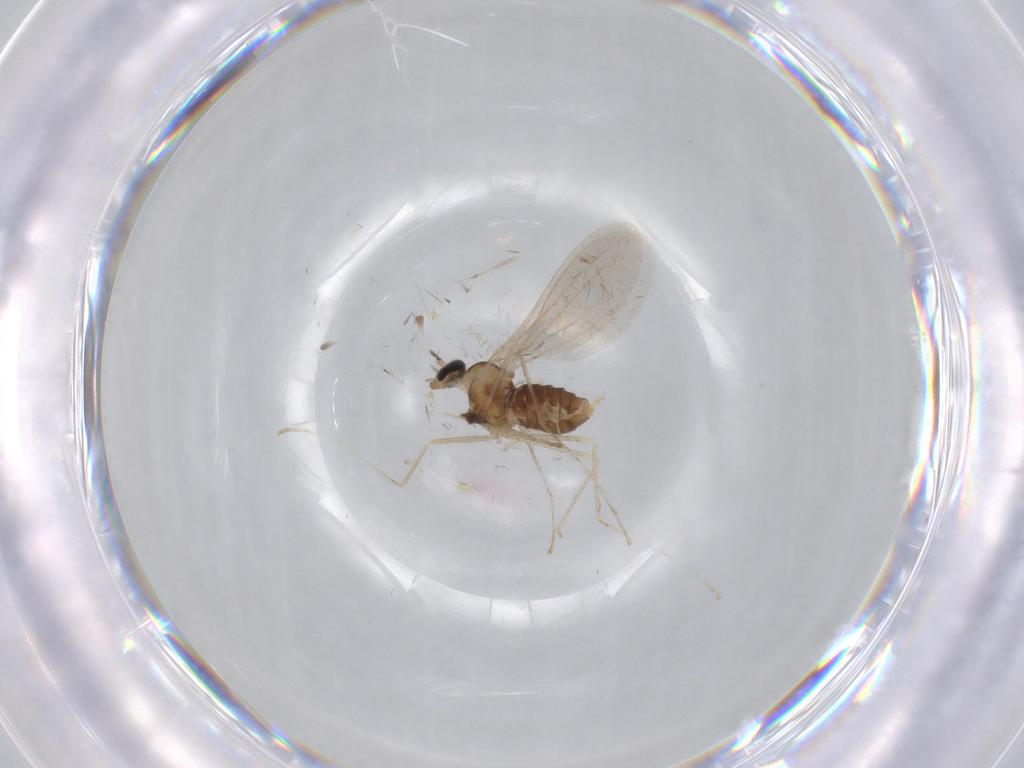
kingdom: Animalia
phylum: Arthropoda
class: Insecta
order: Diptera
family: Cecidomyiidae
